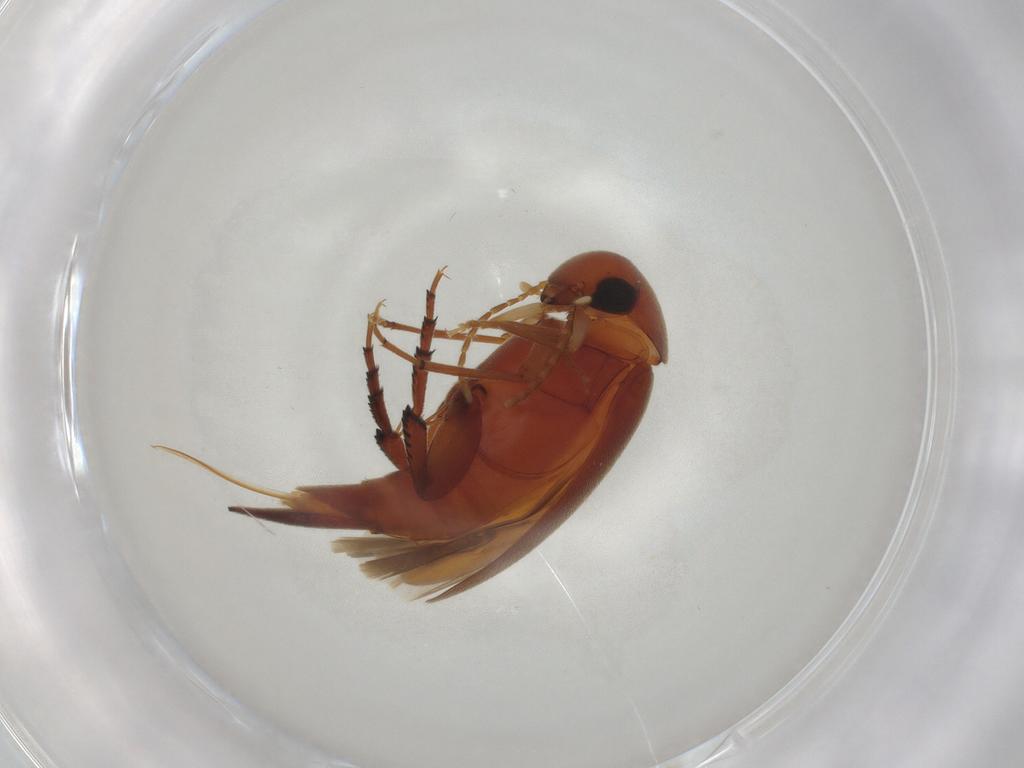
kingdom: Animalia
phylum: Arthropoda
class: Insecta
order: Coleoptera
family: Mordellidae
